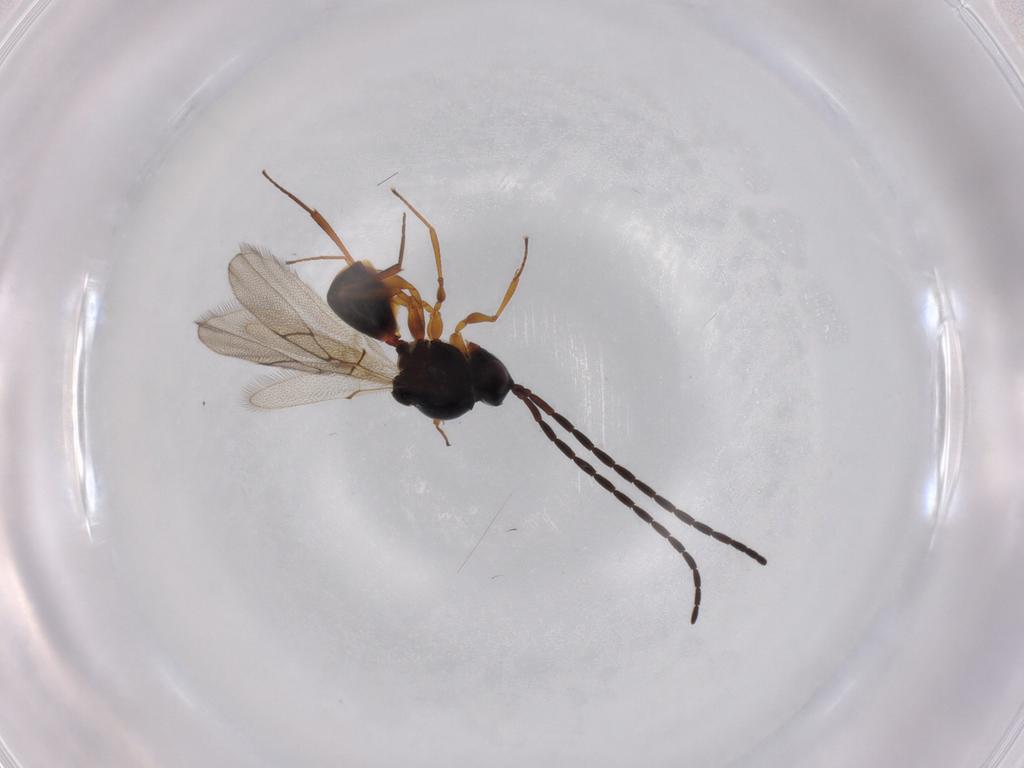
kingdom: Animalia
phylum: Arthropoda
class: Insecta
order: Hymenoptera
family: Figitidae
